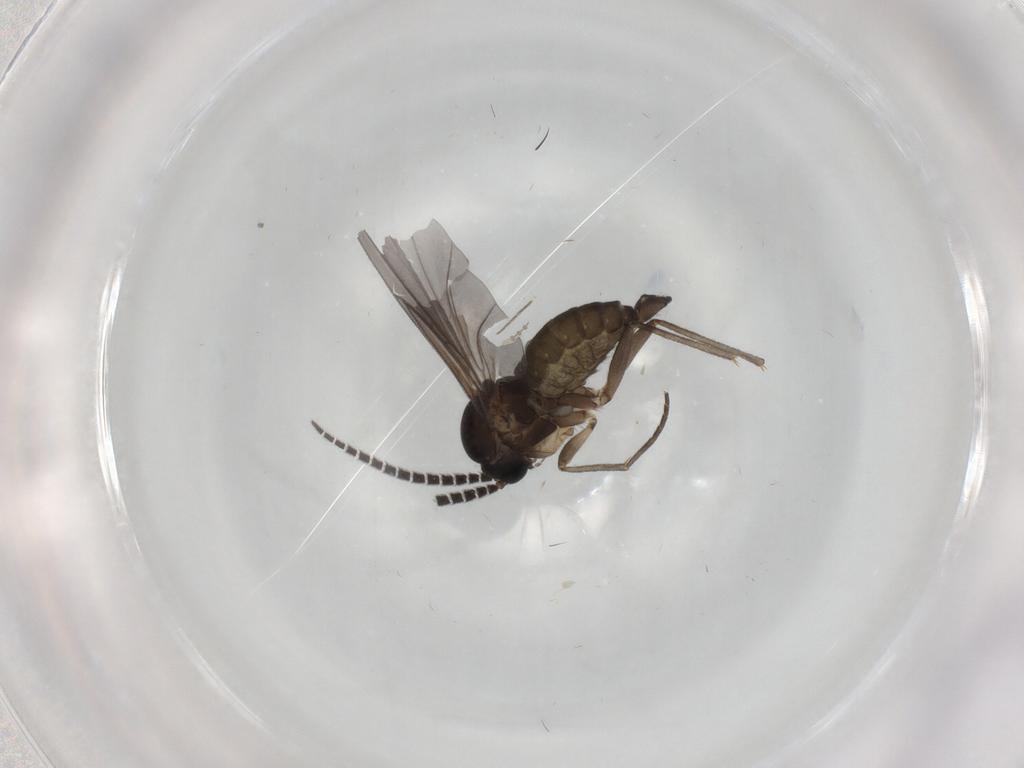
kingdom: Animalia
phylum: Arthropoda
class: Insecta
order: Diptera
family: Sciaridae
